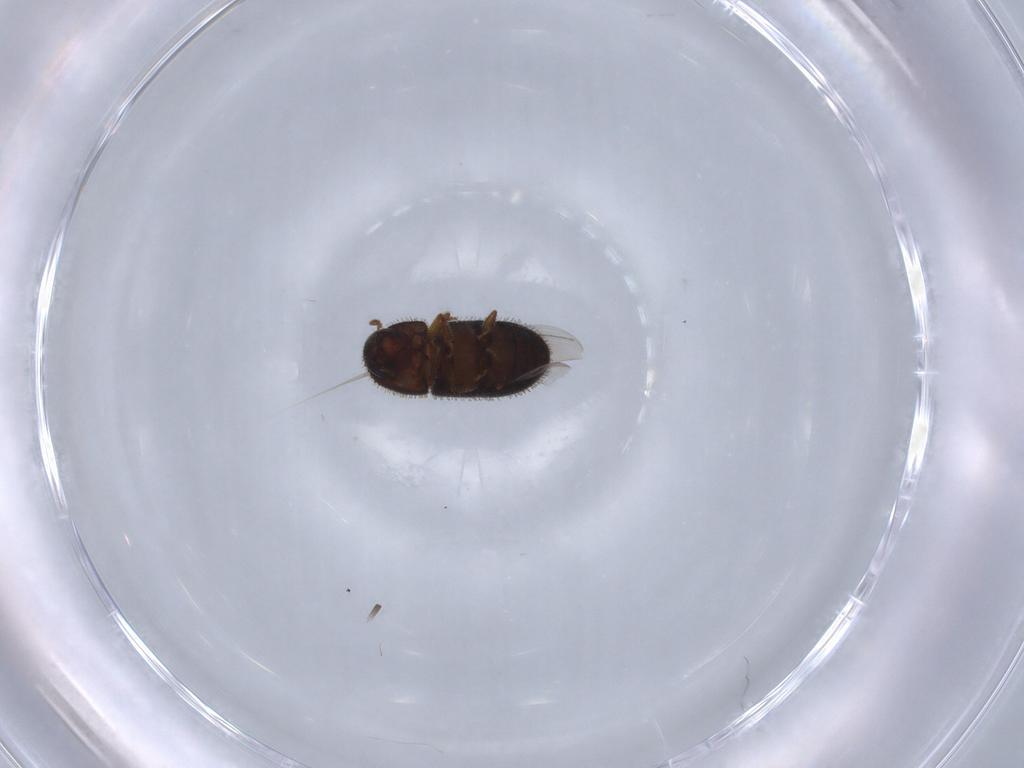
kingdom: Animalia
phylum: Arthropoda
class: Insecta
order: Coleoptera
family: Curculionidae
